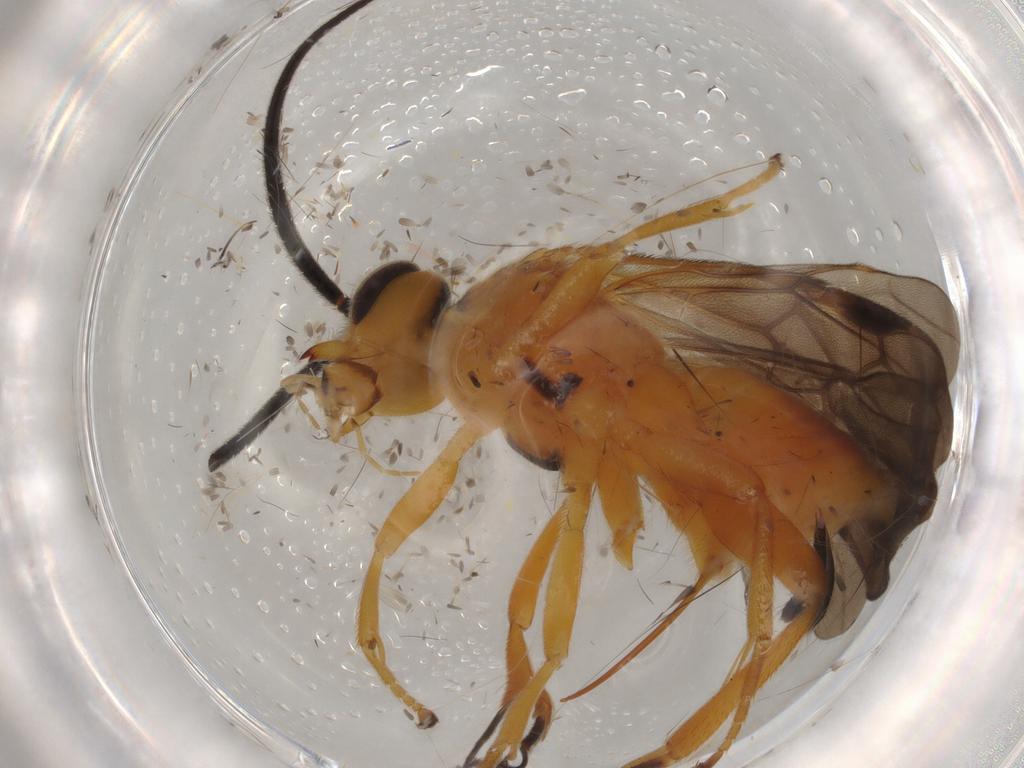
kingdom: Animalia
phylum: Arthropoda
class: Insecta
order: Hymenoptera
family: Braconidae
